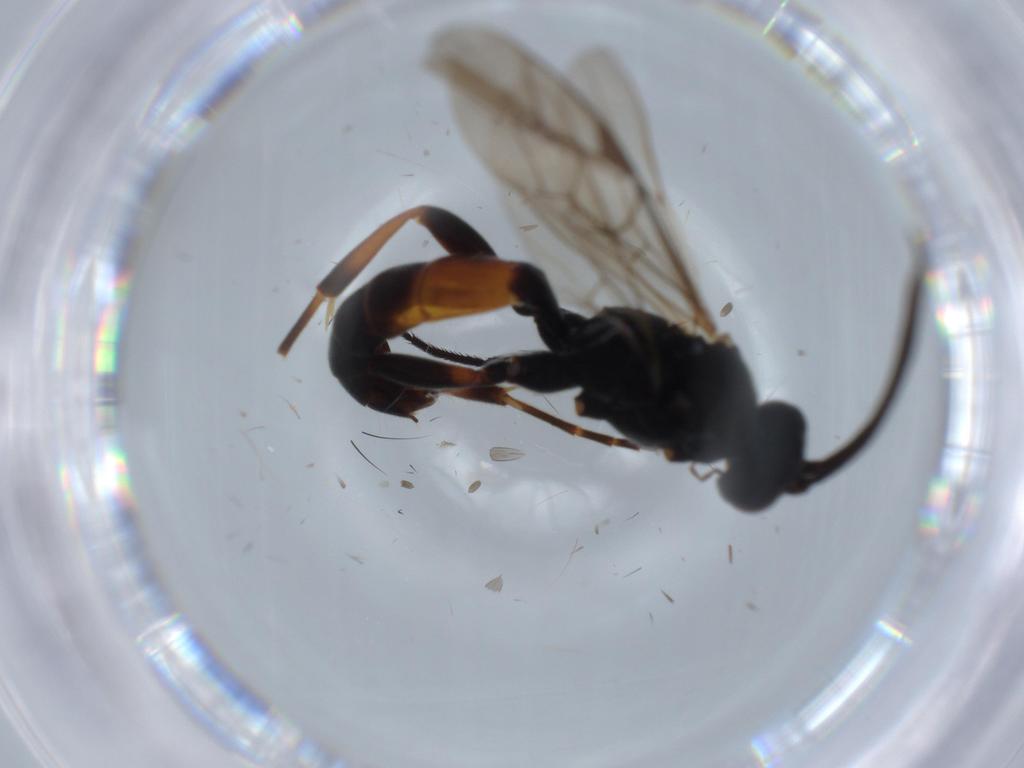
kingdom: Animalia
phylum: Arthropoda
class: Insecta
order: Hymenoptera
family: Ichneumonidae
